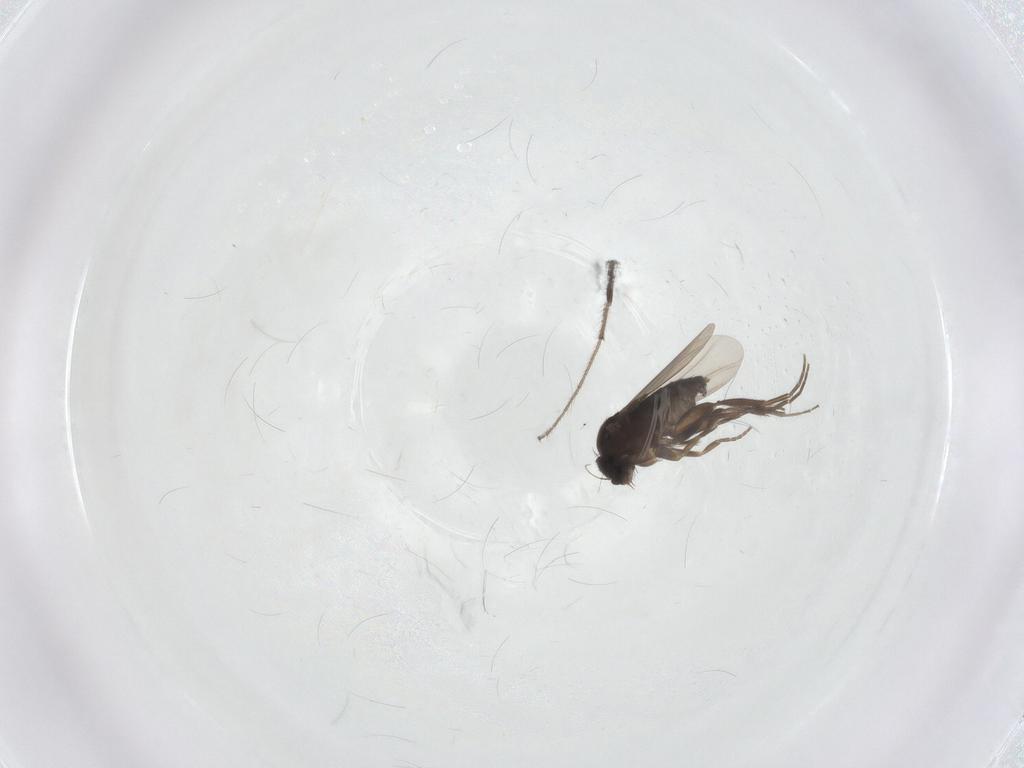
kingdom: Animalia
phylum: Arthropoda
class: Insecta
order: Diptera
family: Phoridae
